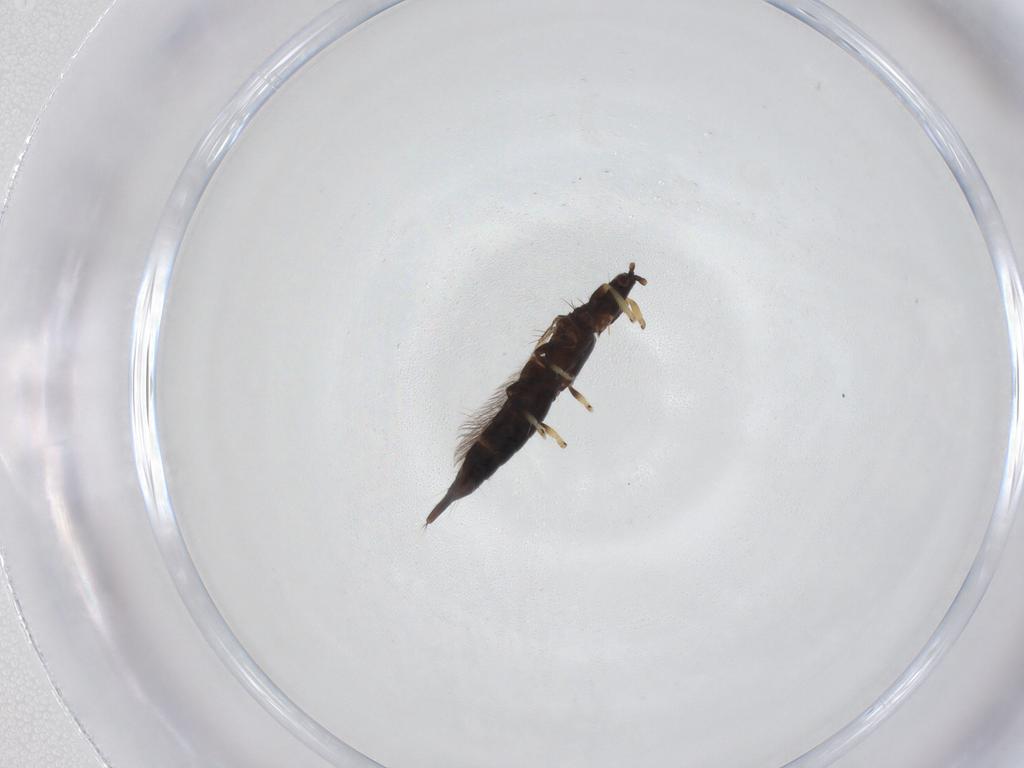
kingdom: Animalia
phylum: Arthropoda
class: Insecta
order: Thysanoptera
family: Phlaeothripidae
